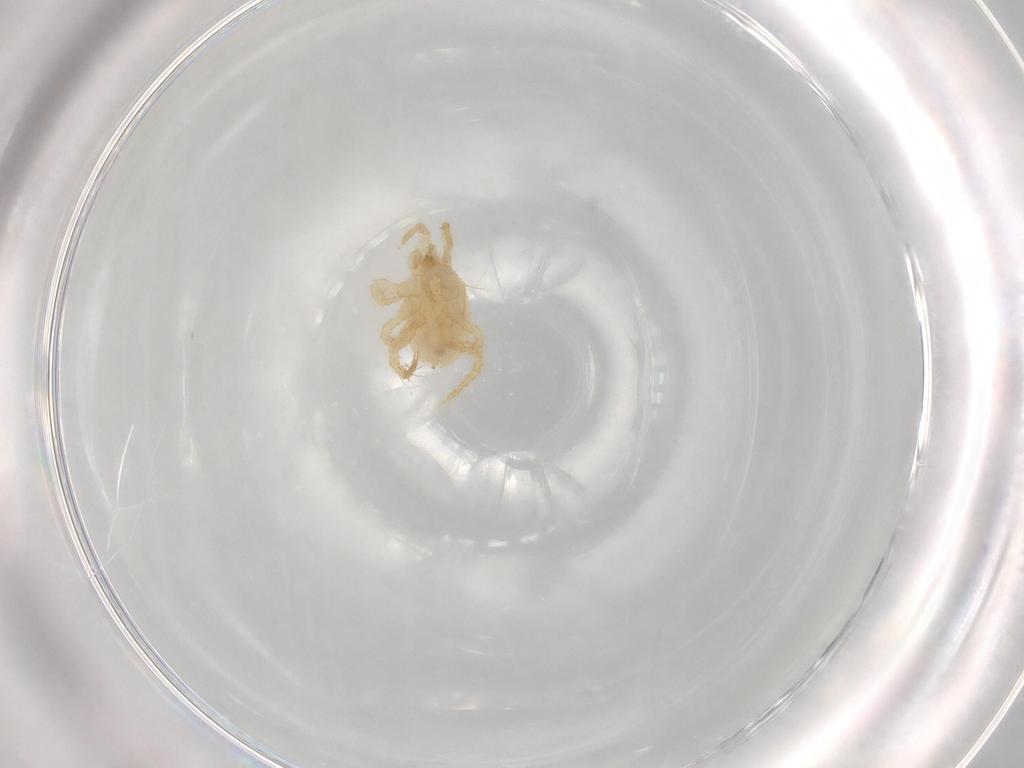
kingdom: Animalia
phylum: Arthropoda
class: Arachnida
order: Mesostigmata
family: Parasitidae
